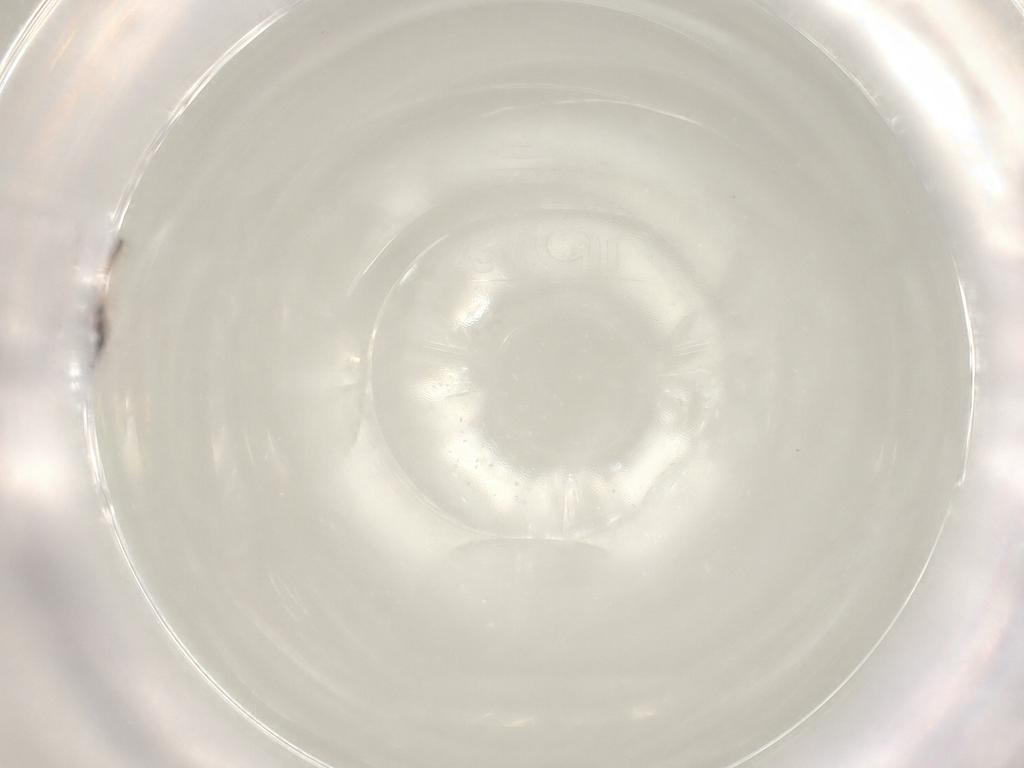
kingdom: Animalia
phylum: Arthropoda
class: Insecta
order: Thysanoptera
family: Thripidae
